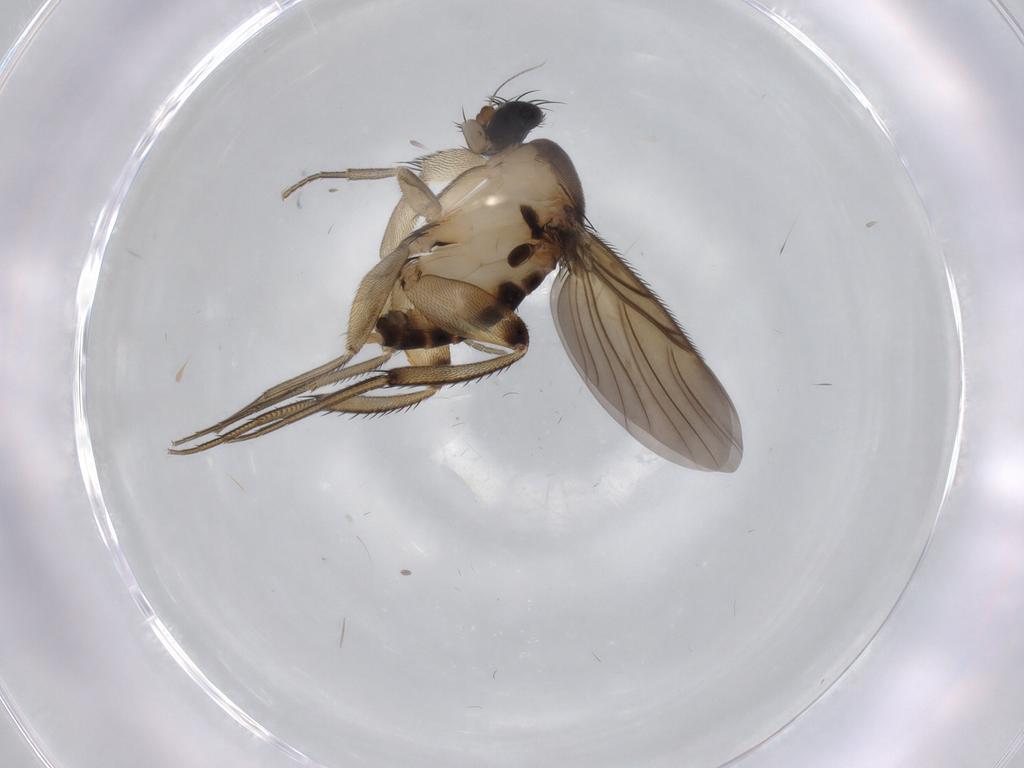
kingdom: Animalia
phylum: Arthropoda
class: Insecta
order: Diptera
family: Phoridae
